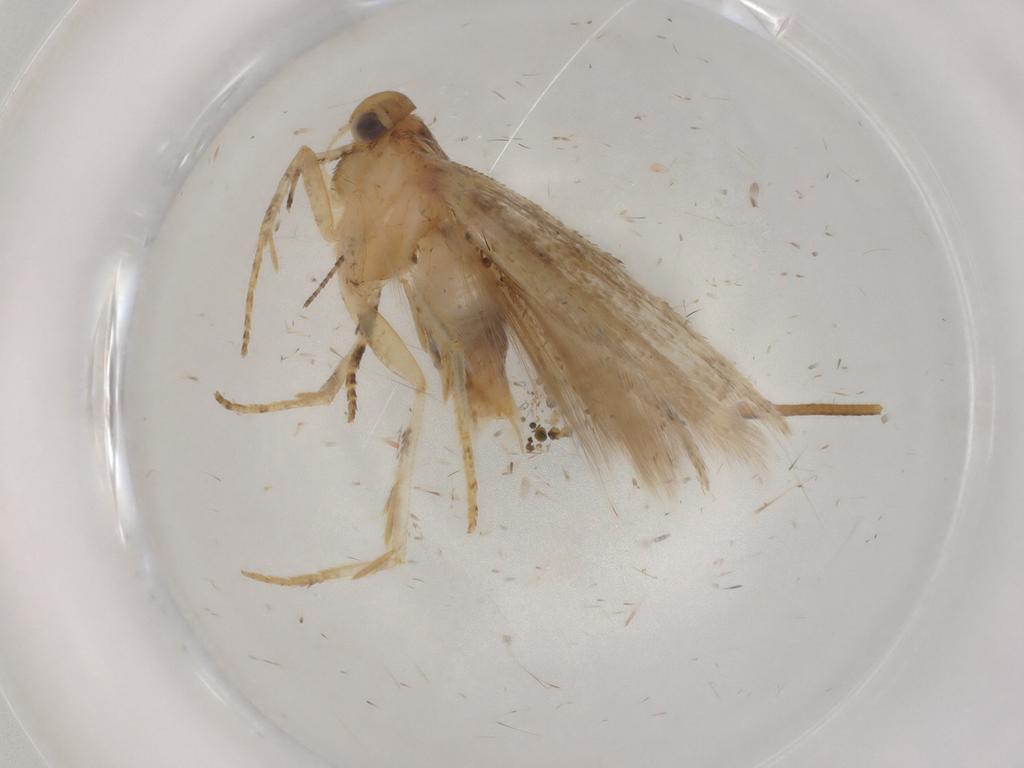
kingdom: Animalia
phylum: Arthropoda
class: Insecta
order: Lepidoptera
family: Gelechiidae
